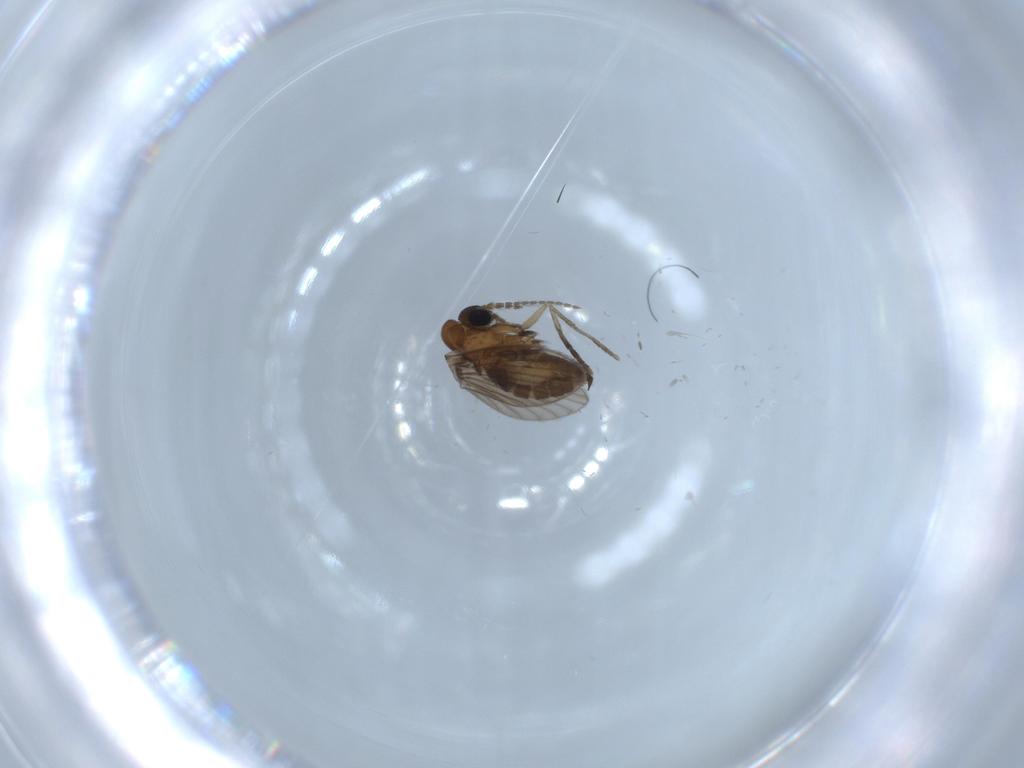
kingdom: Animalia
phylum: Arthropoda
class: Insecta
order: Diptera
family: Psychodidae
